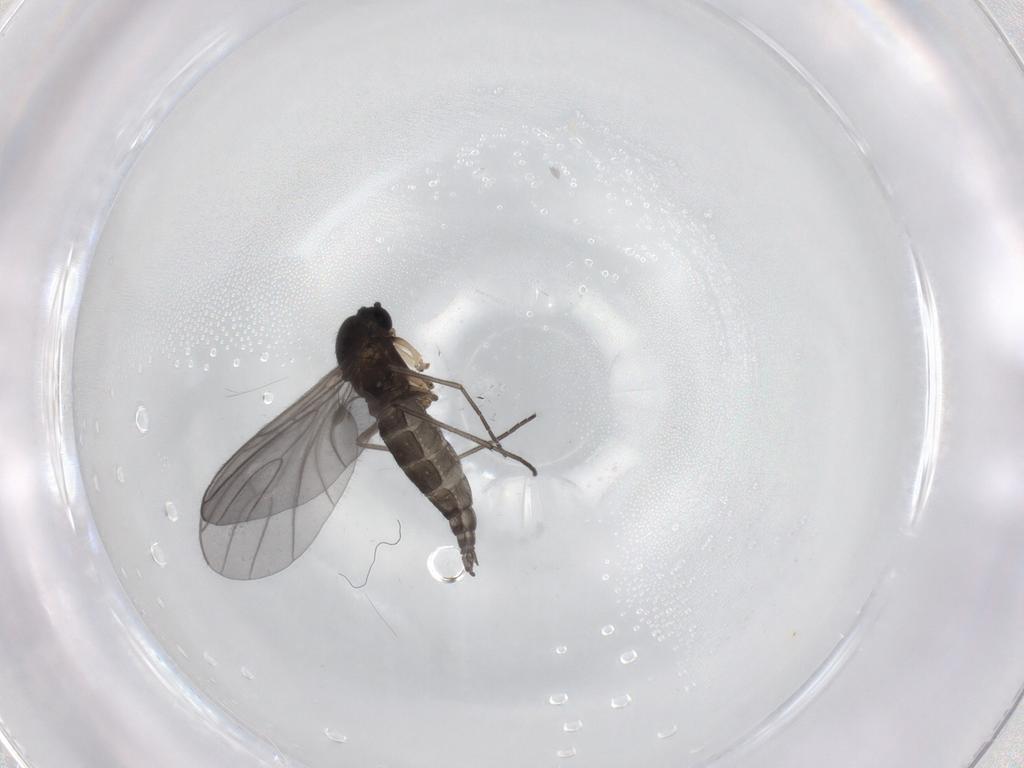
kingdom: Animalia
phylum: Arthropoda
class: Insecta
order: Diptera
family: Sciaridae
